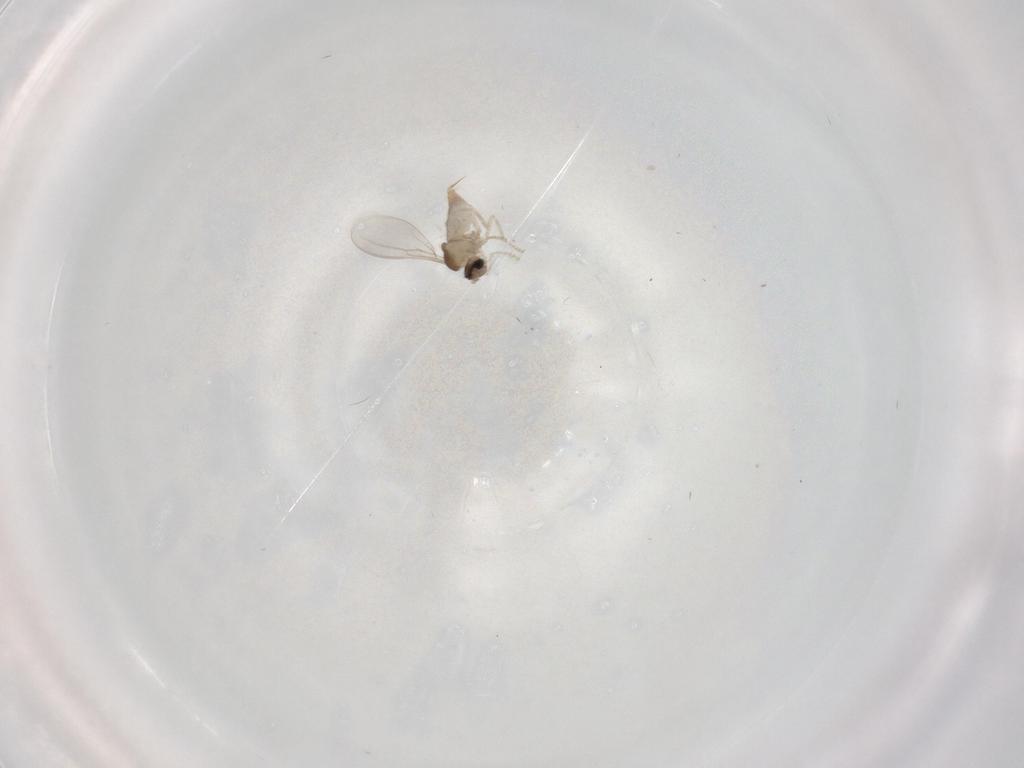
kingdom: Animalia
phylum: Arthropoda
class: Insecta
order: Diptera
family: Cecidomyiidae
